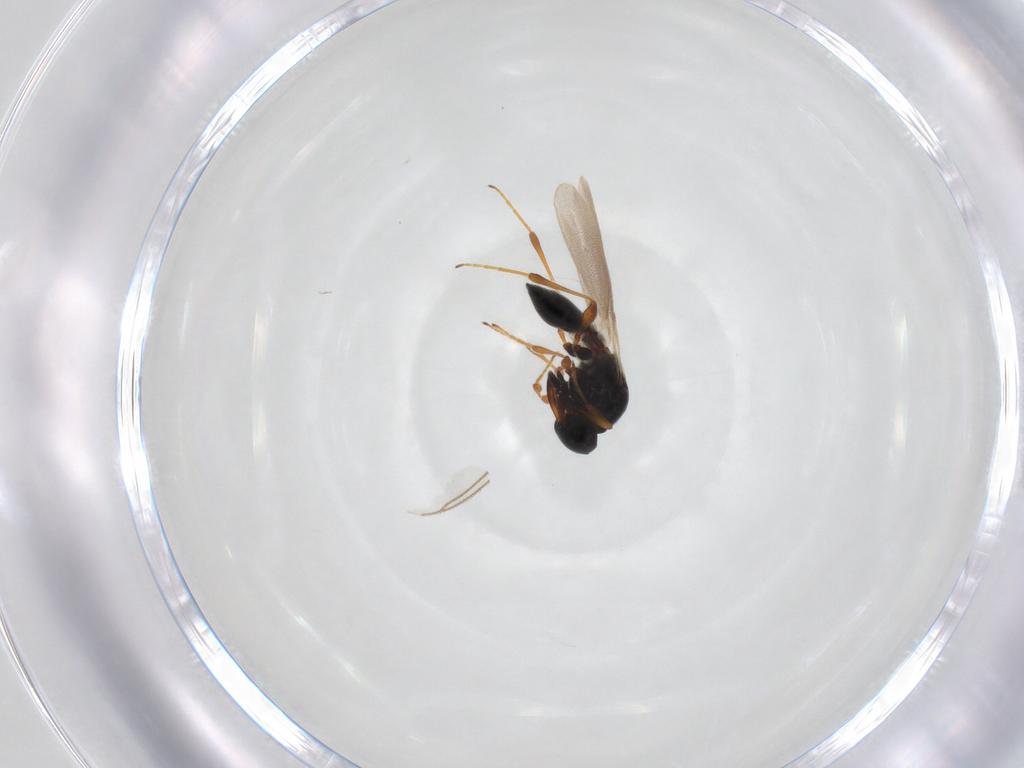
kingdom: Animalia
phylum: Arthropoda
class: Insecta
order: Hymenoptera
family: Platygastridae
